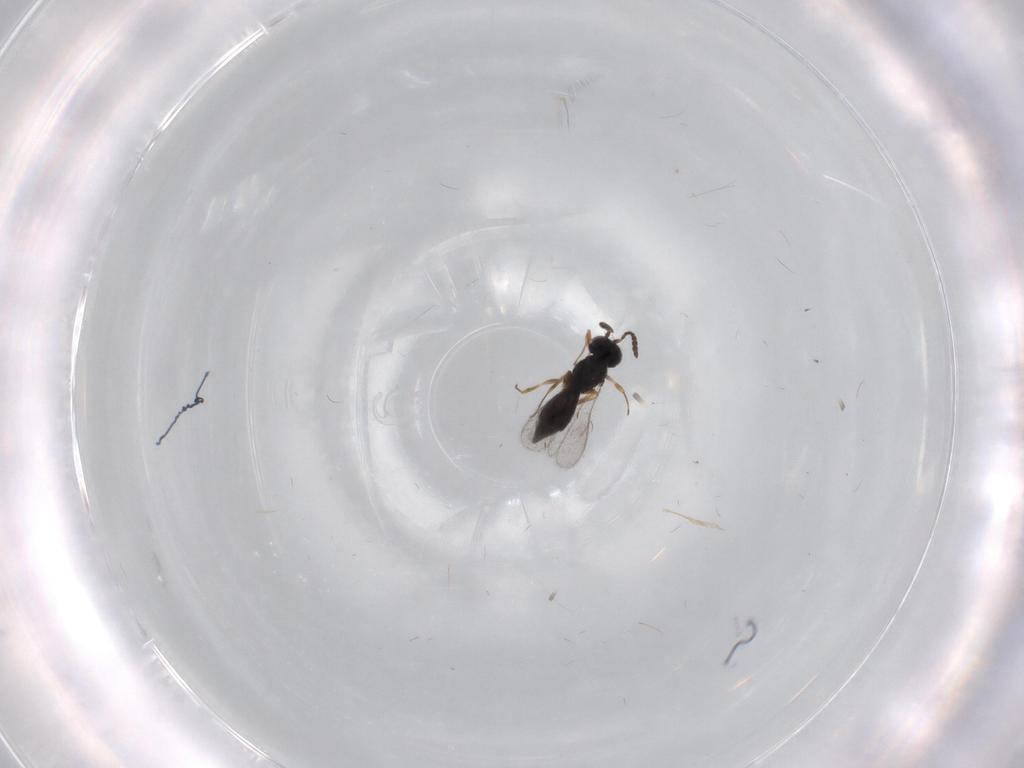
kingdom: Animalia
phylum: Arthropoda
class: Insecta
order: Hymenoptera
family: Scelionidae
